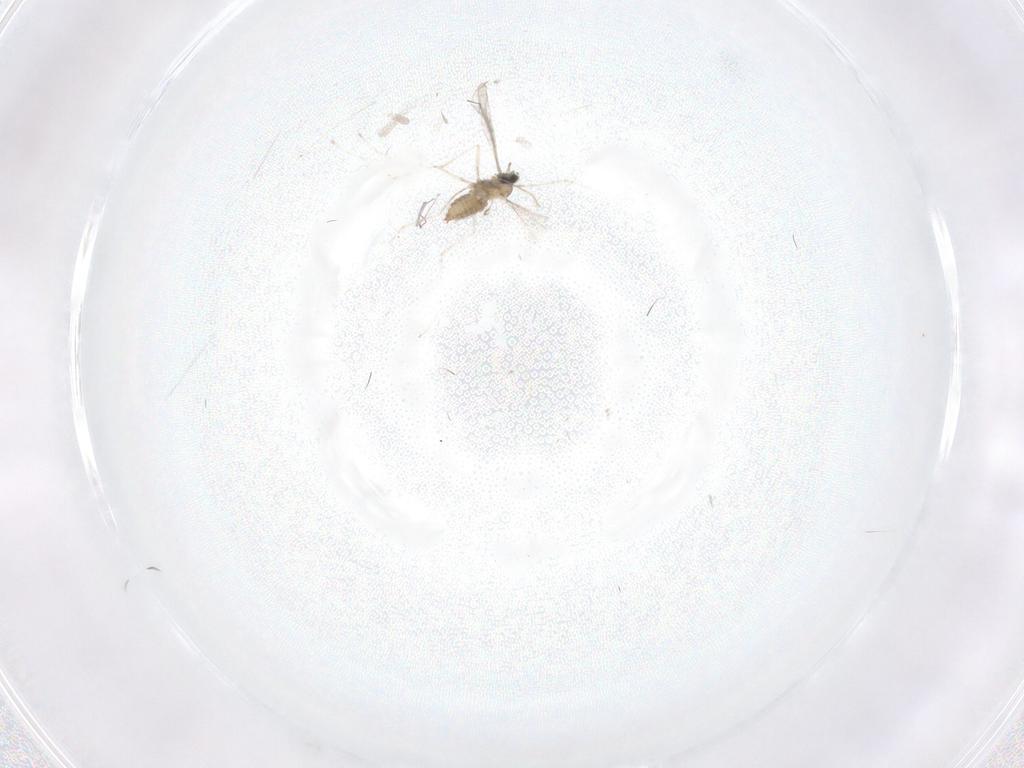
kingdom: Animalia
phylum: Arthropoda
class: Insecta
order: Diptera
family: Cecidomyiidae
